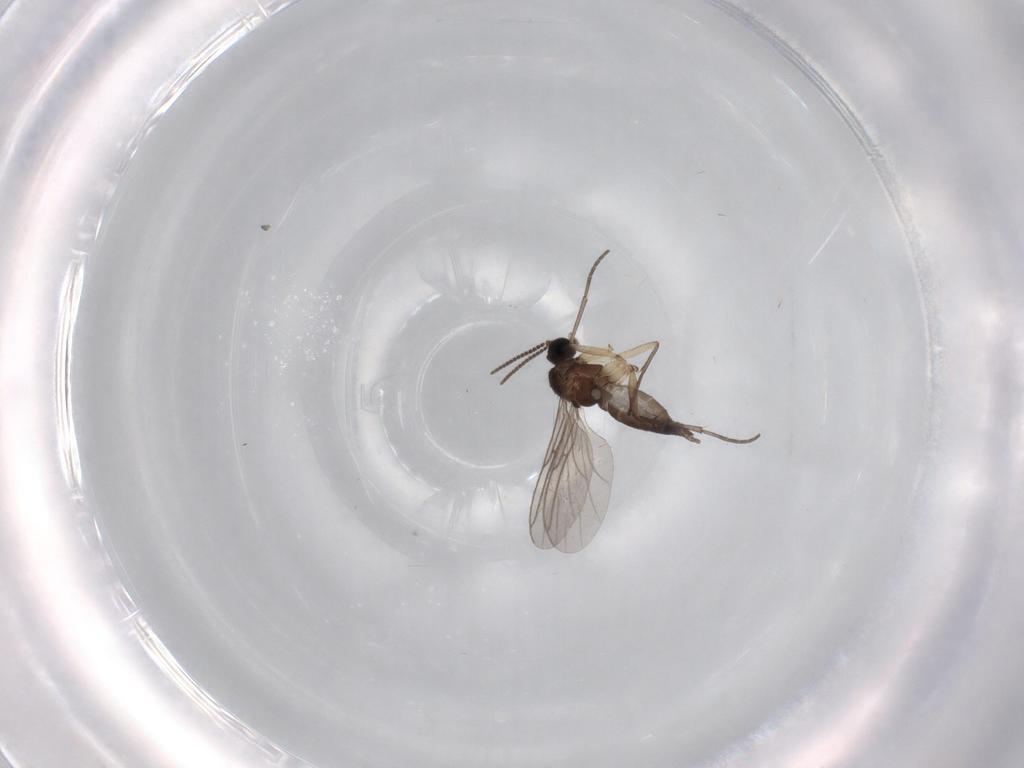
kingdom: Animalia
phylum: Arthropoda
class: Insecta
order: Diptera
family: Sciaridae
